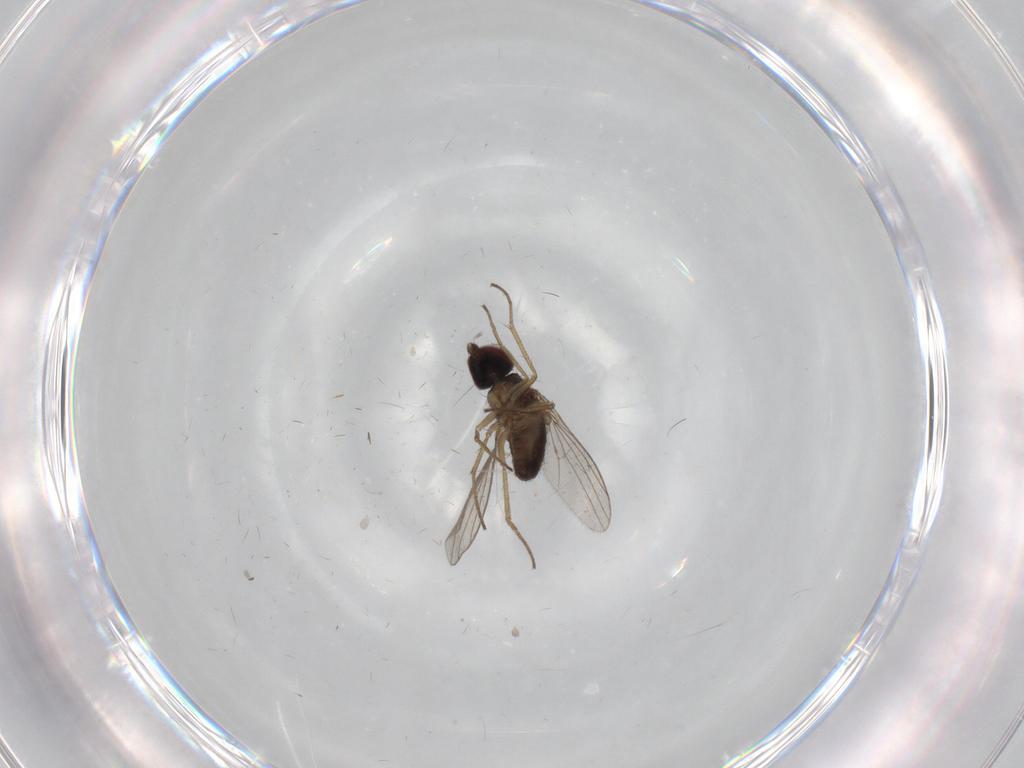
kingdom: Animalia
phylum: Arthropoda
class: Insecta
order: Diptera
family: Dolichopodidae
